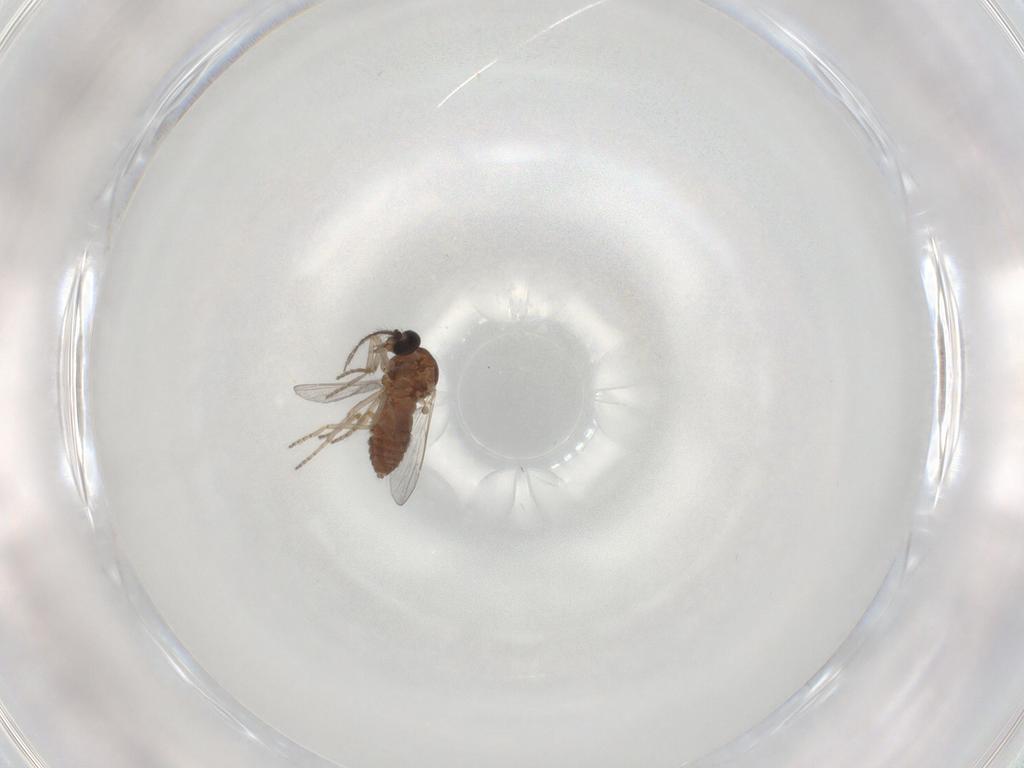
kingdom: Animalia
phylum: Arthropoda
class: Insecta
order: Diptera
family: Ceratopogonidae
